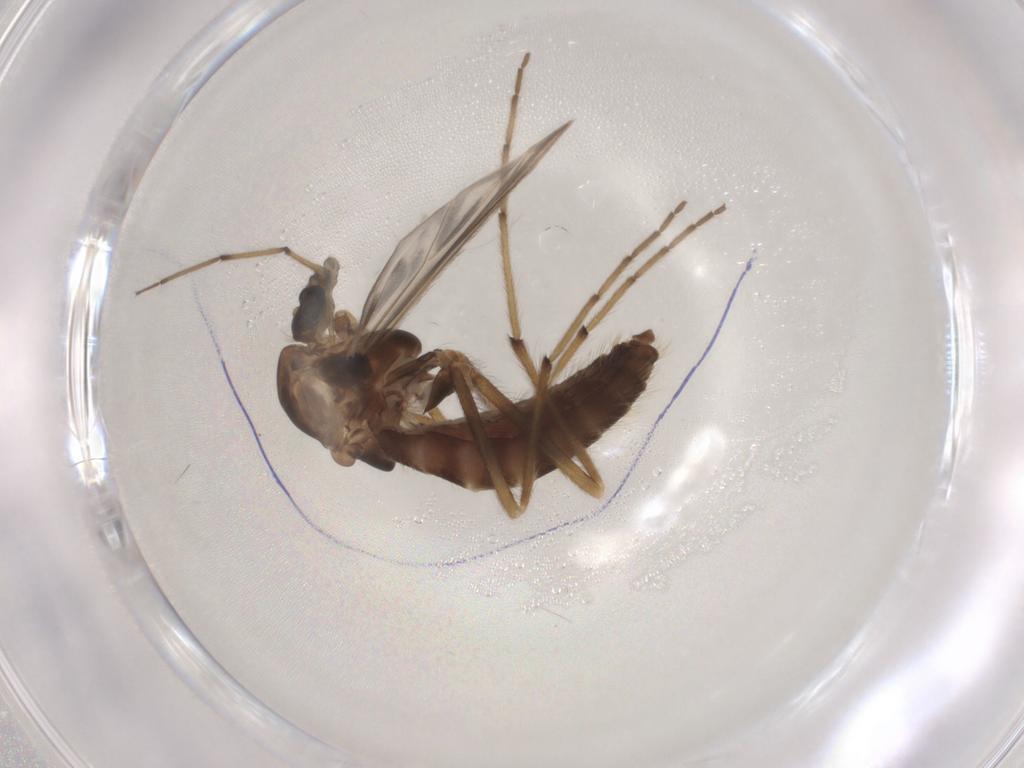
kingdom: Animalia
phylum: Arthropoda
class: Insecta
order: Diptera
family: Chironomidae
